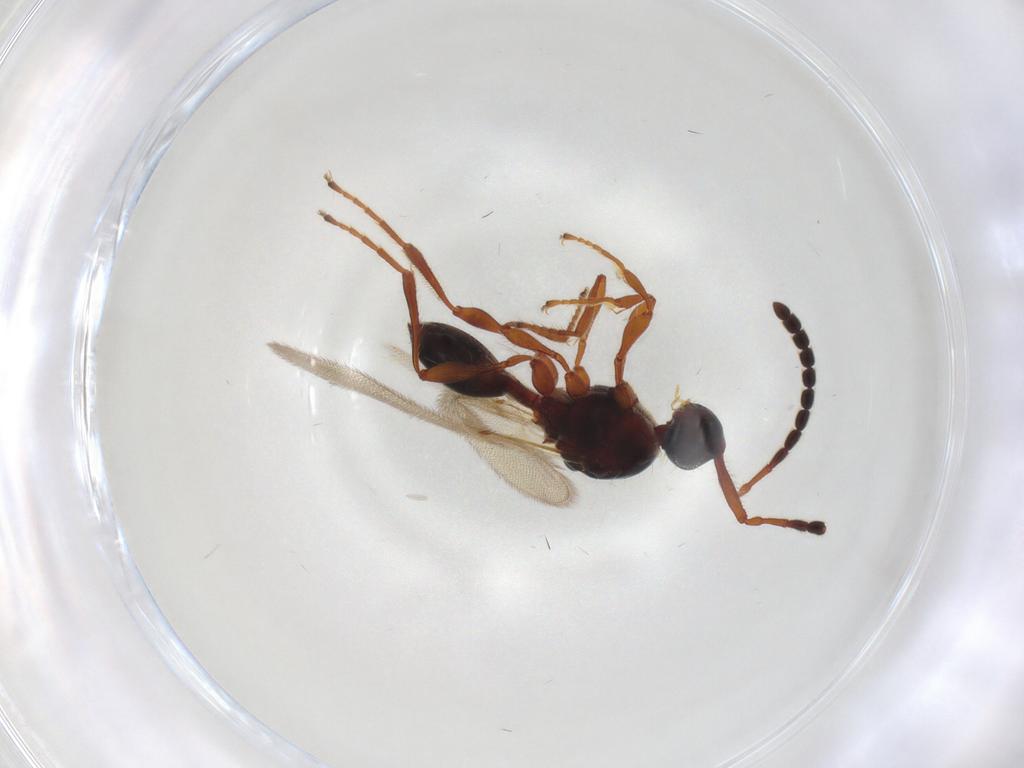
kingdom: Animalia
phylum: Arthropoda
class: Insecta
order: Hymenoptera
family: Diapriidae
